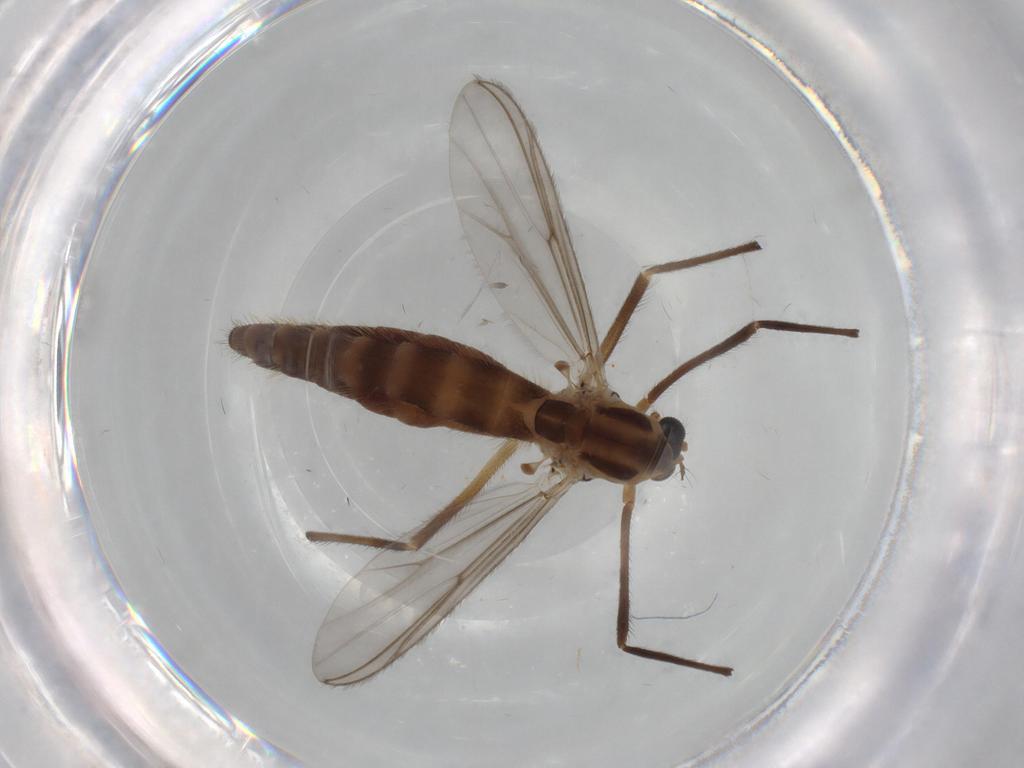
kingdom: Animalia
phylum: Arthropoda
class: Insecta
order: Diptera
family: Chironomidae
